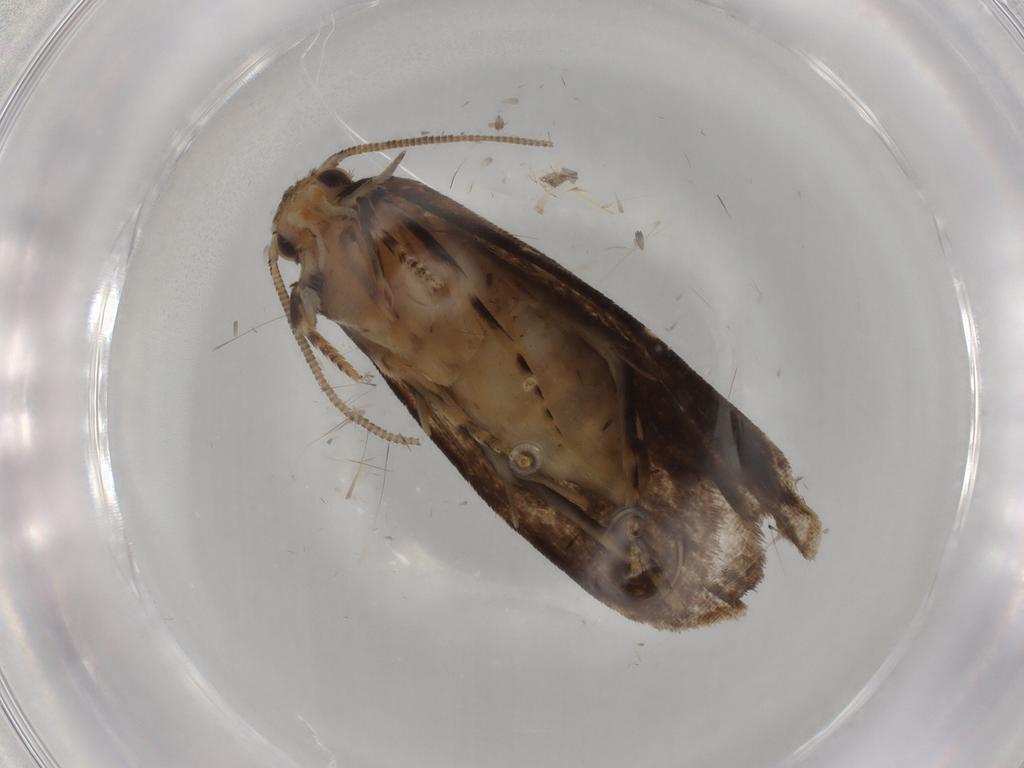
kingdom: Animalia
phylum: Arthropoda
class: Insecta
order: Lepidoptera
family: Dryadaulidae
